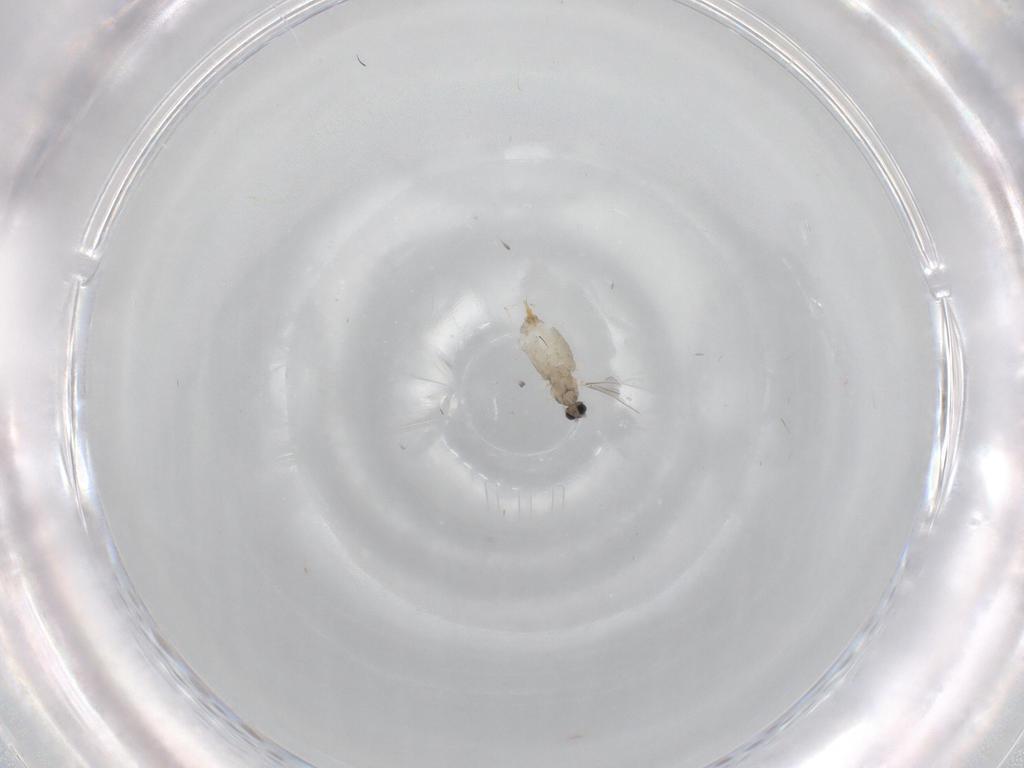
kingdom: Animalia
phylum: Arthropoda
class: Insecta
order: Diptera
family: Cecidomyiidae
